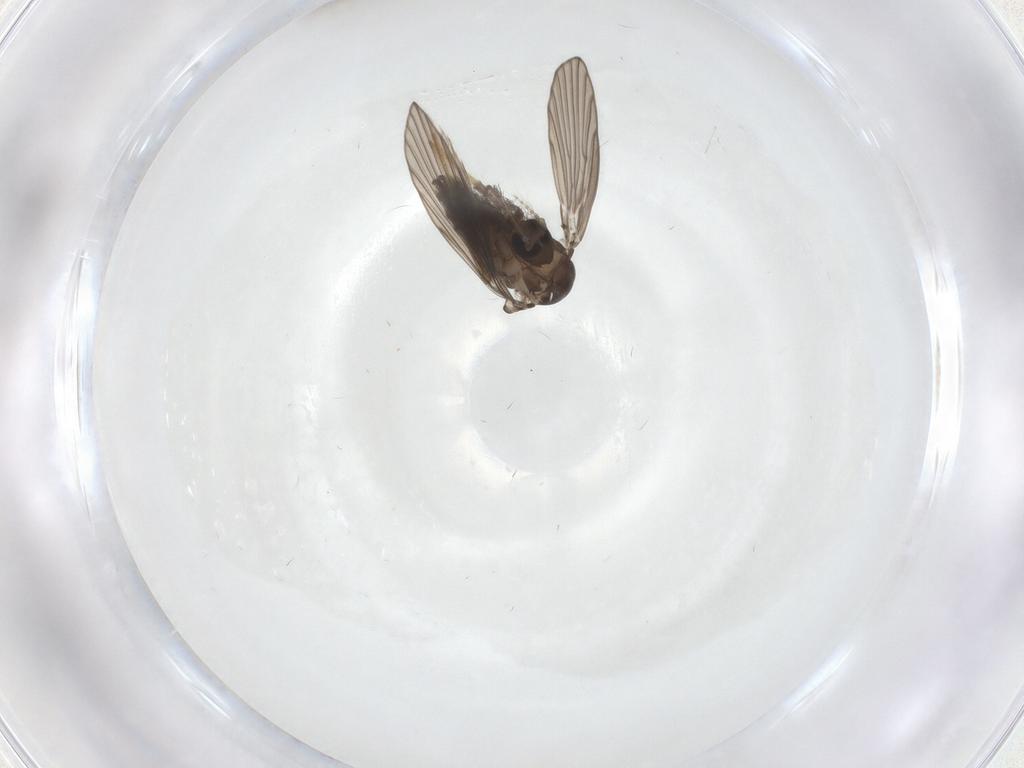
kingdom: Animalia
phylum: Arthropoda
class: Insecta
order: Diptera
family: Psychodidae
